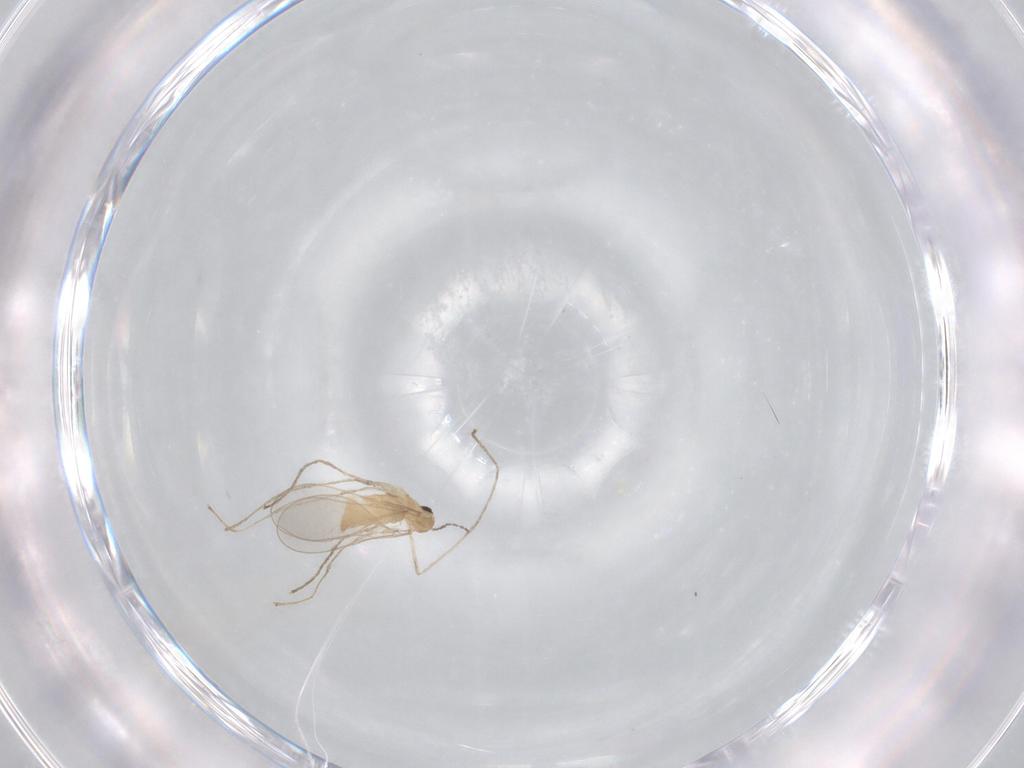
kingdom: Animalia
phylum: Arthropoda
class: Insecta
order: Diptera
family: Cecidomyiidae
